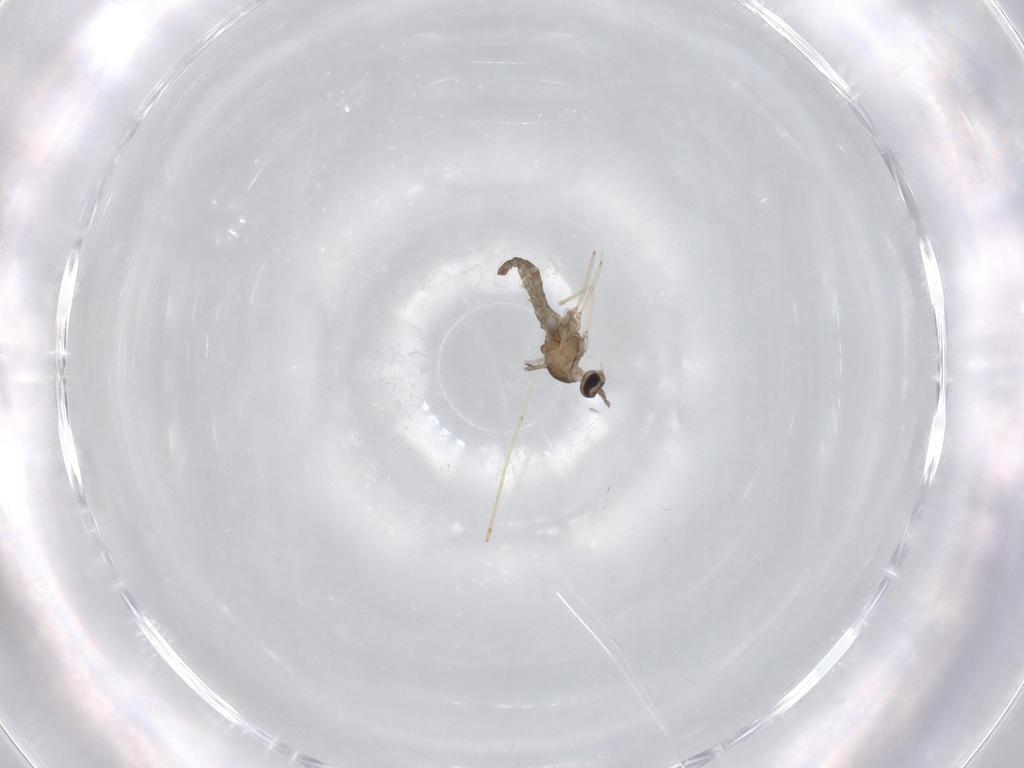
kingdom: Animalia
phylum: Arthropoda
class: Insecta
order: Diptera
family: Cecidomyiidae
